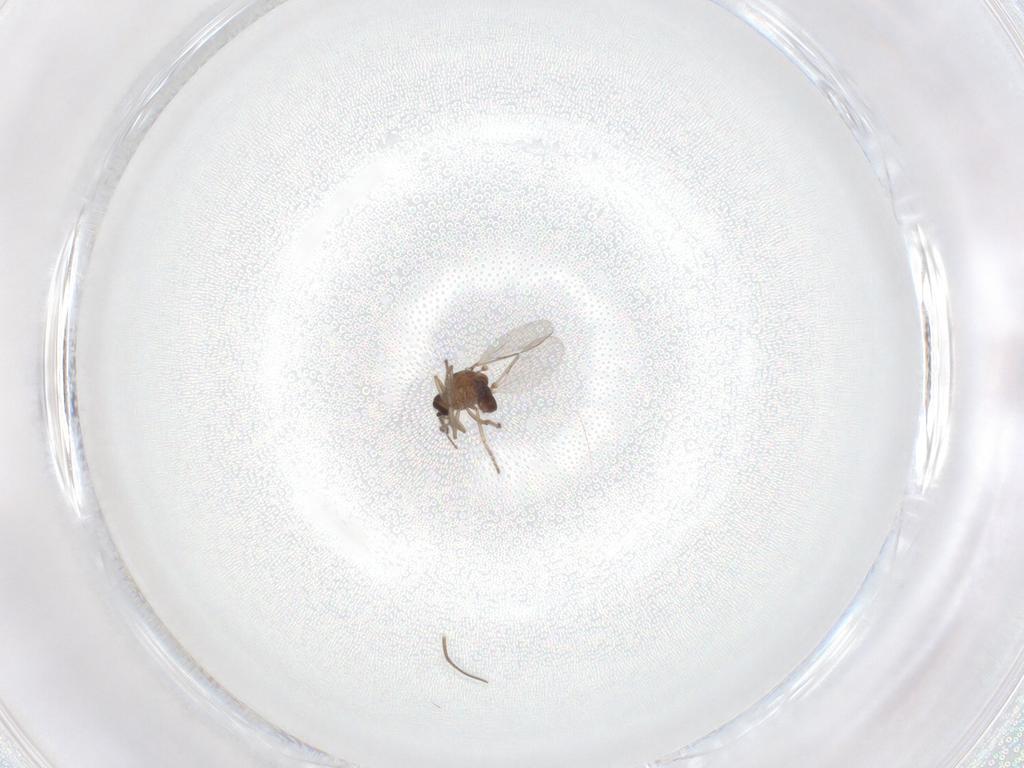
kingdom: Animalia
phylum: Arthropoda
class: Insecta
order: Diptera
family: Ceratopogonidae
